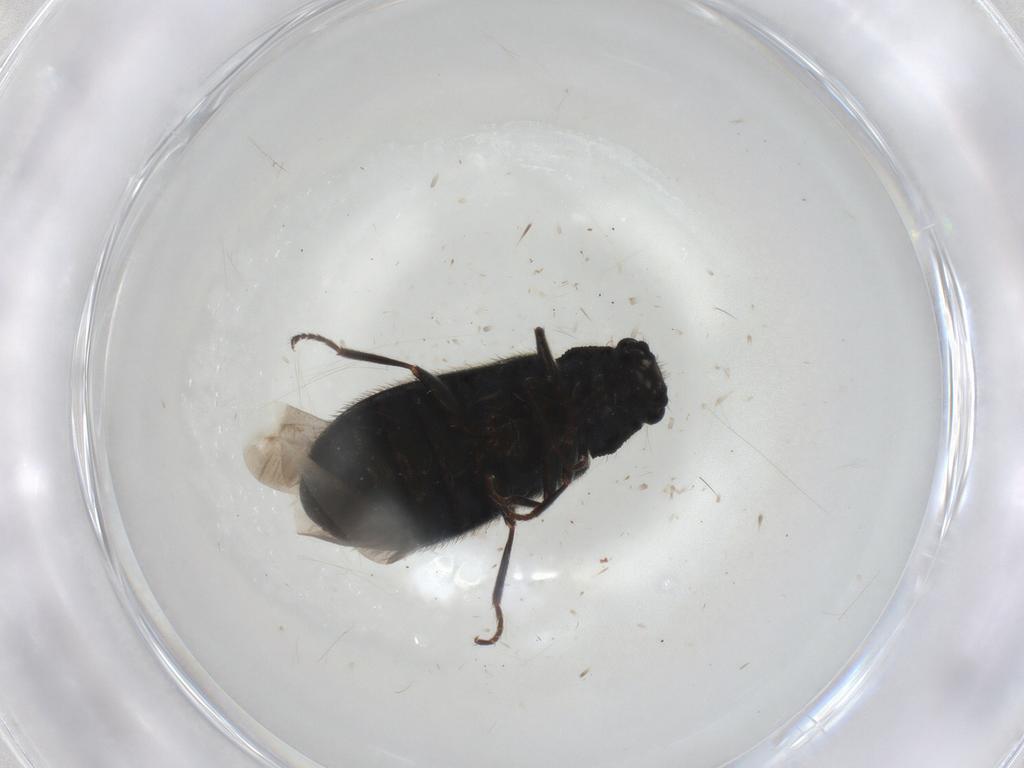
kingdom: Animalia
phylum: Arthropoda
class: Insecta
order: Coleoptera
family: Melyridae
